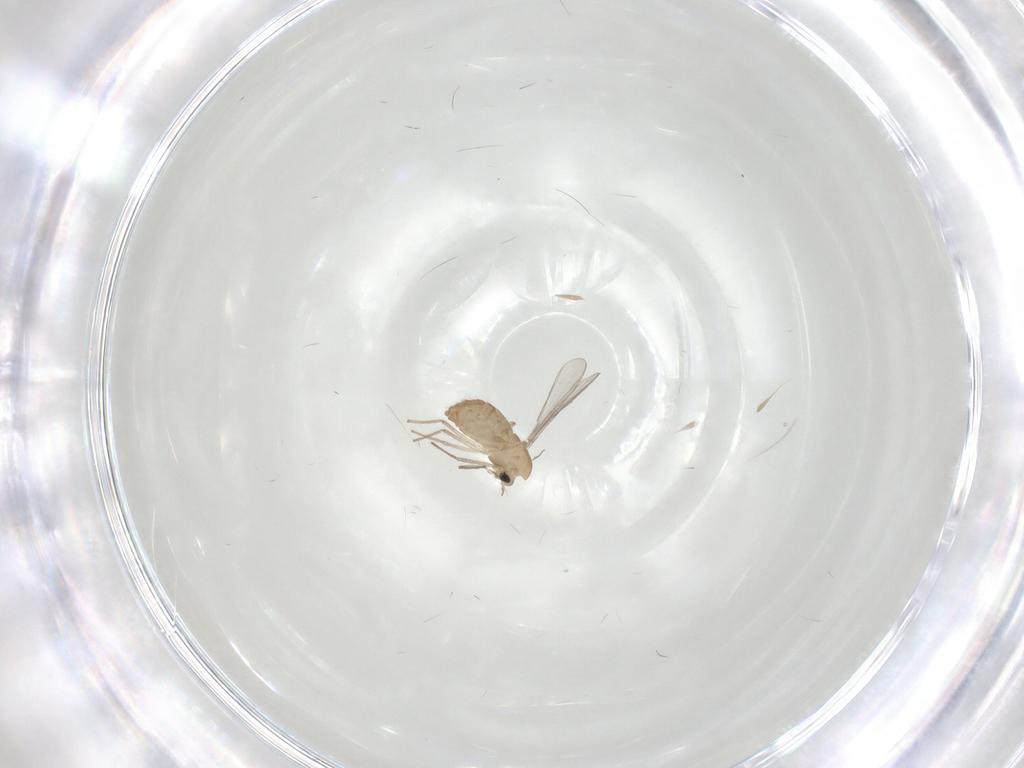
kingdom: Animalia
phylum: Arthropoda
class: Insecta
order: Diptera
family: Chironomidae
